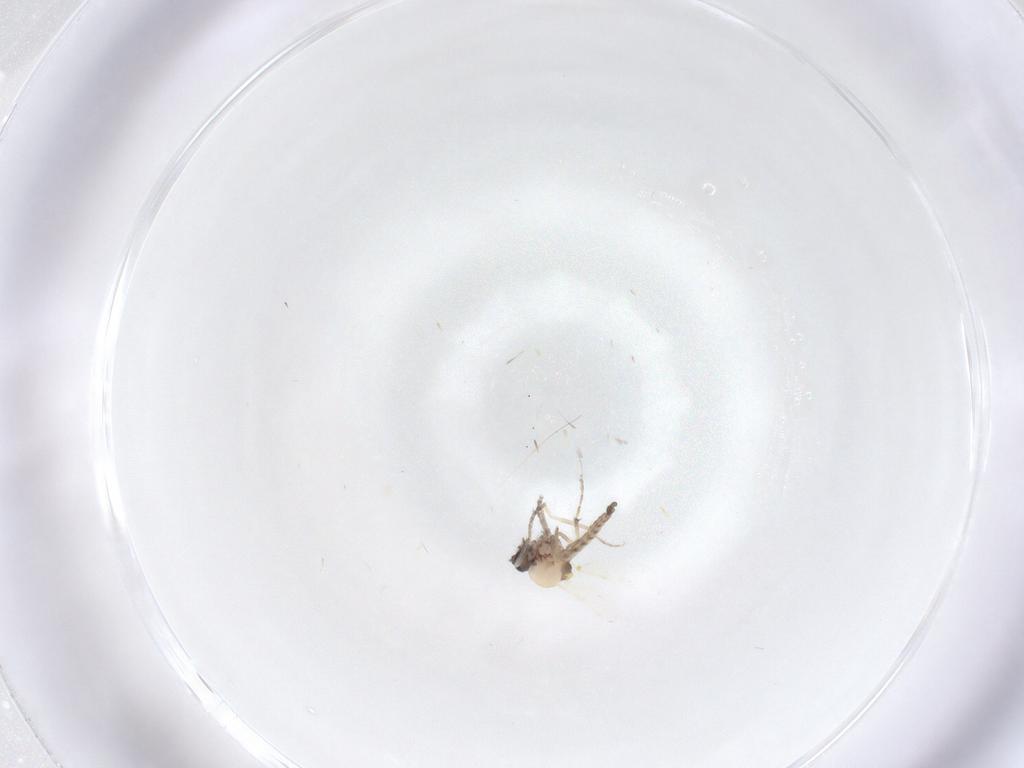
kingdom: Animalia
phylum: Arthropoda
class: Insecta
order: Diptera
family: Ceratopogonidae
